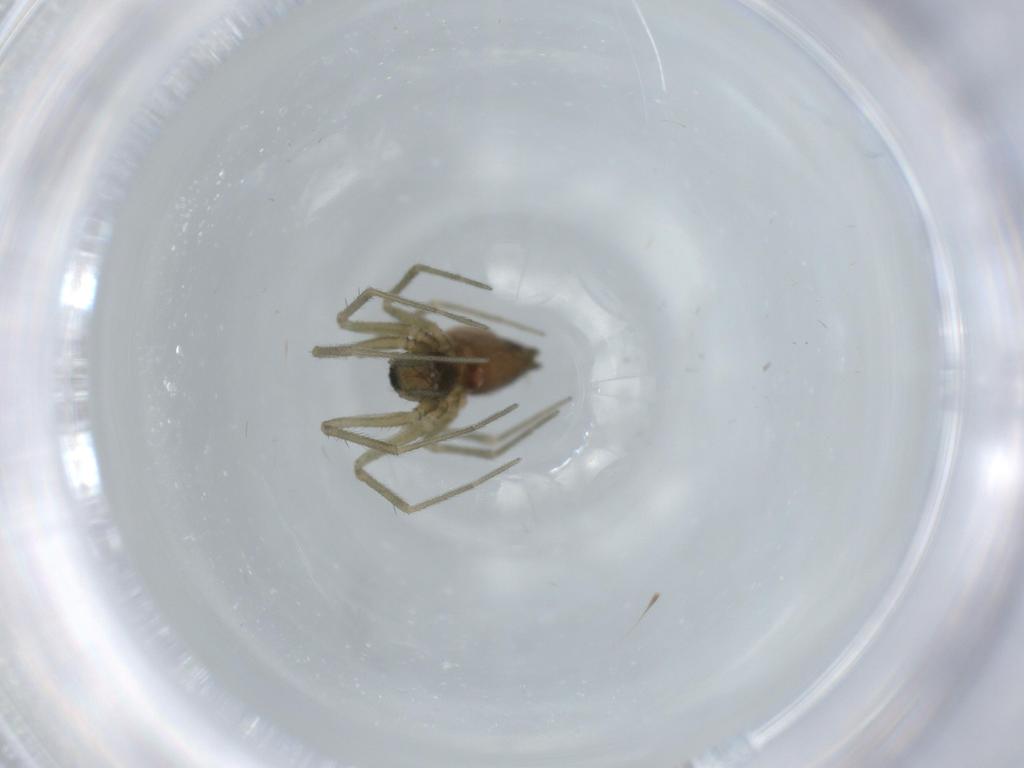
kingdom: Animalia
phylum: Arthropoda
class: Arachnida
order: Araneae
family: Linyphiidae
